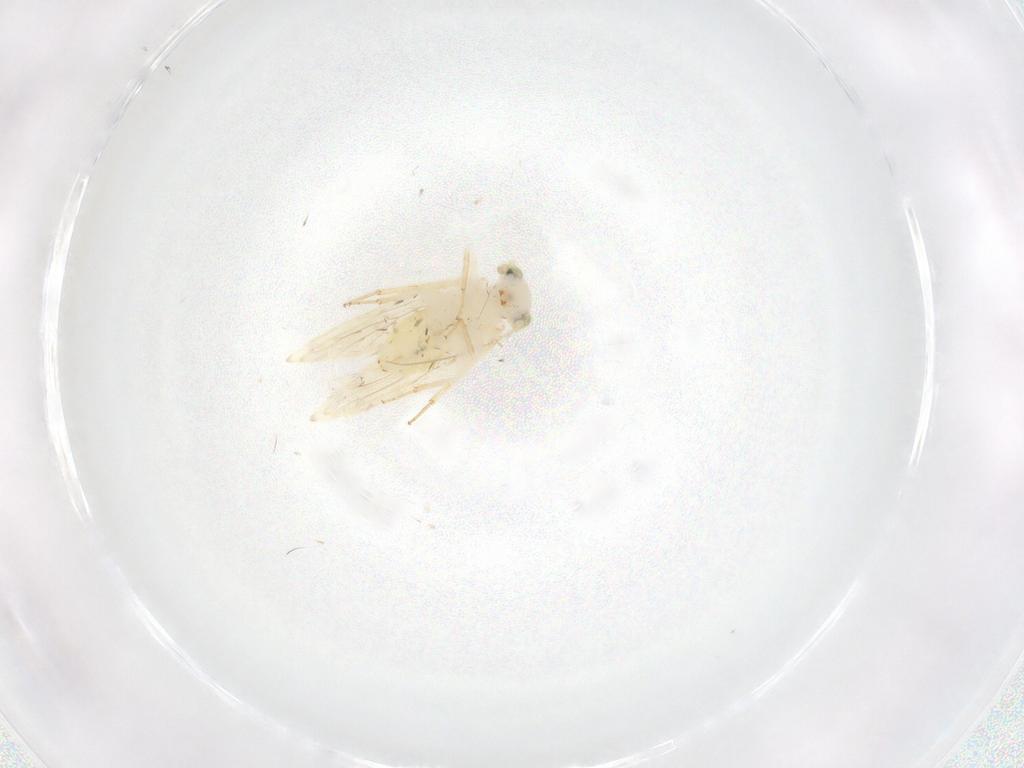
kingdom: Animalia
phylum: Arthropoda
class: Insecta
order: Psocodea
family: Lepidopsocidae
